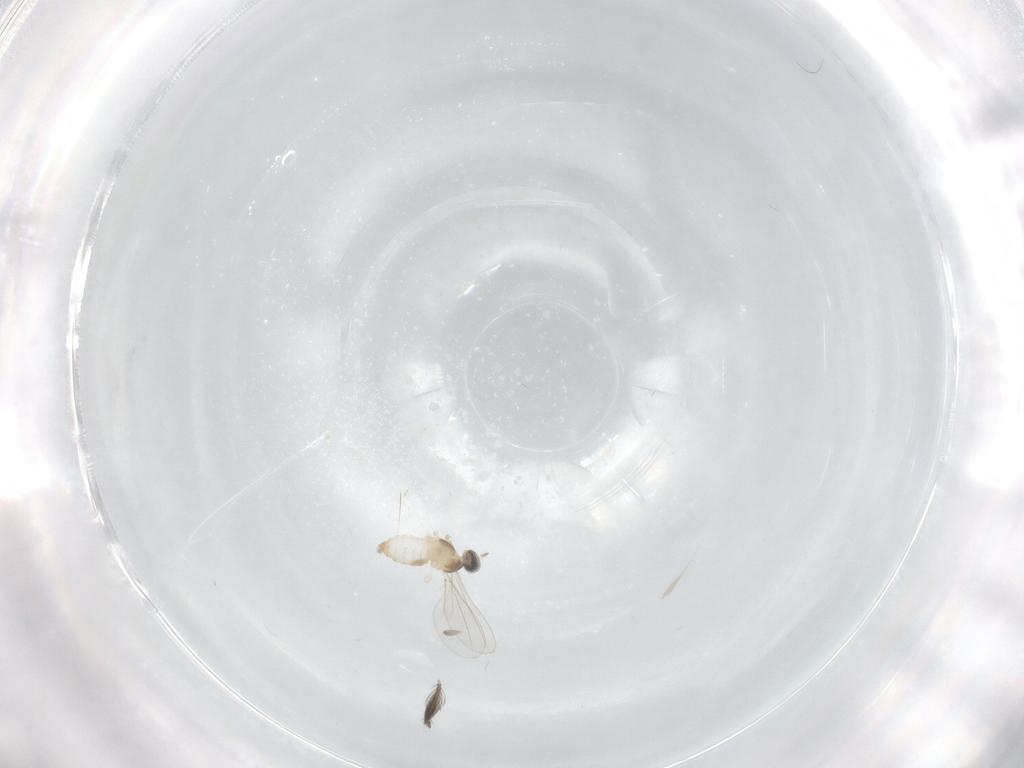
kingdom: Animalia
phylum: Arthropoda
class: Insecta
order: Diptera
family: Cecidomyiidae
